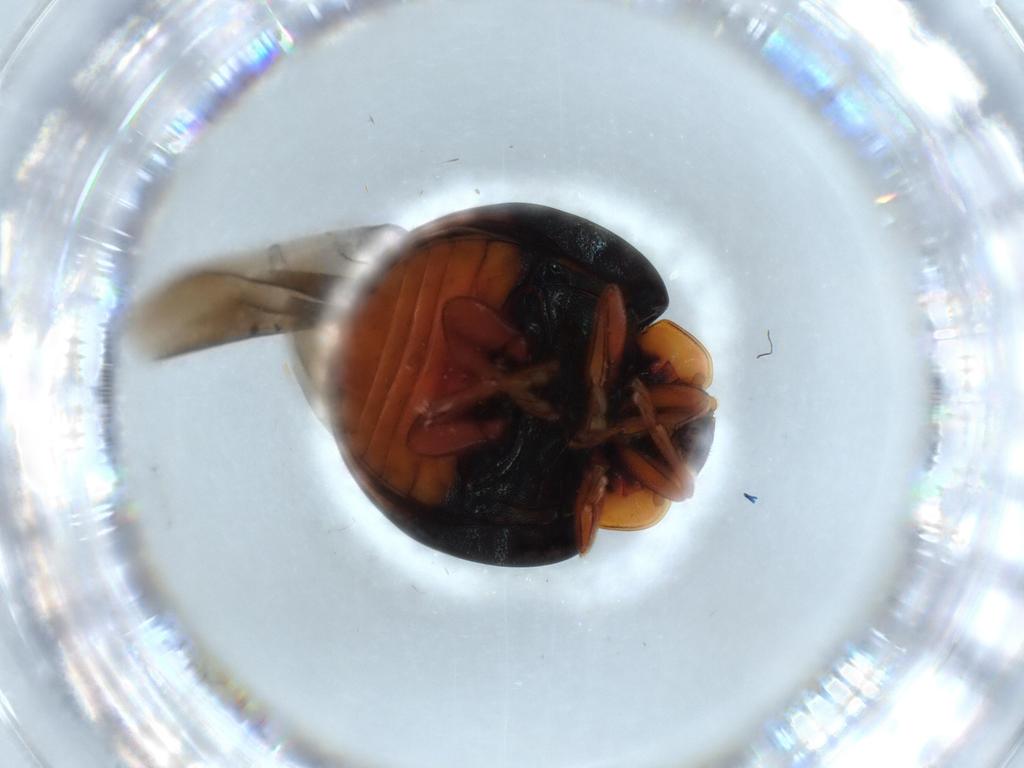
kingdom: Animalia
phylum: Arthropoda
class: Insecta
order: Coleoptera
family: Coccinellidae
